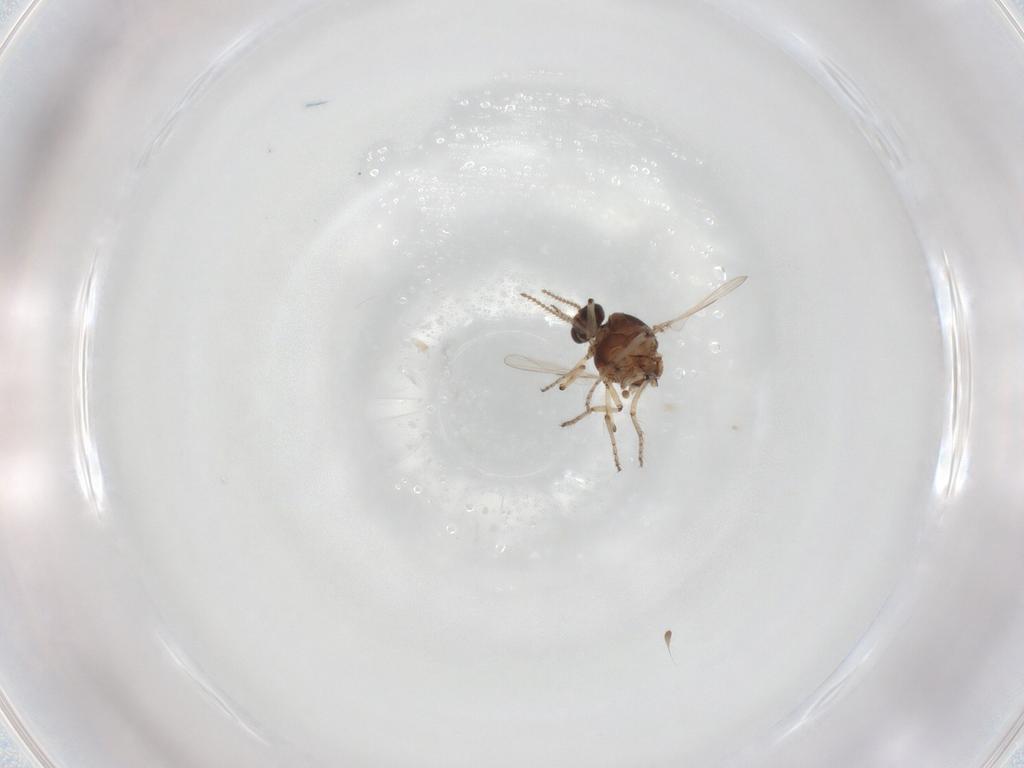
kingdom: Animalia
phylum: Arthropoda
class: Insecta
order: Diptera
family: Ceratopogonidae
